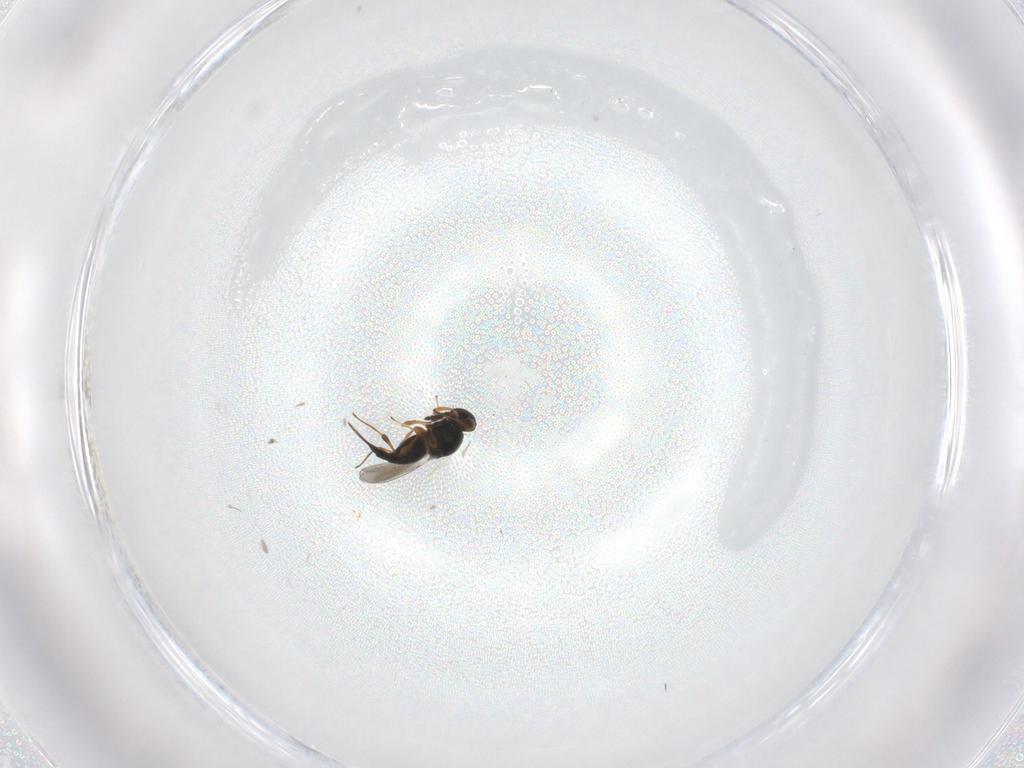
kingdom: Animalia
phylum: Arthropoda
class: Insecta
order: Hymenoptera
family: Platygastridae
